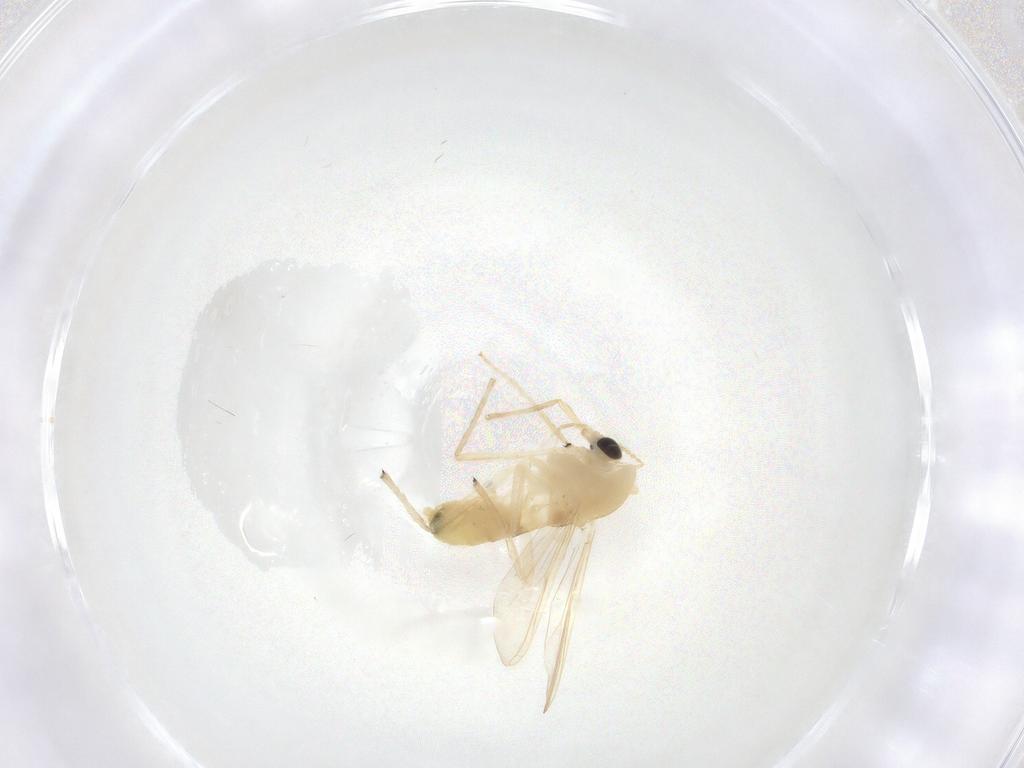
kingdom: Animalia
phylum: Arthropoda
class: Insecta
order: Diptera
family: Chironomidae
